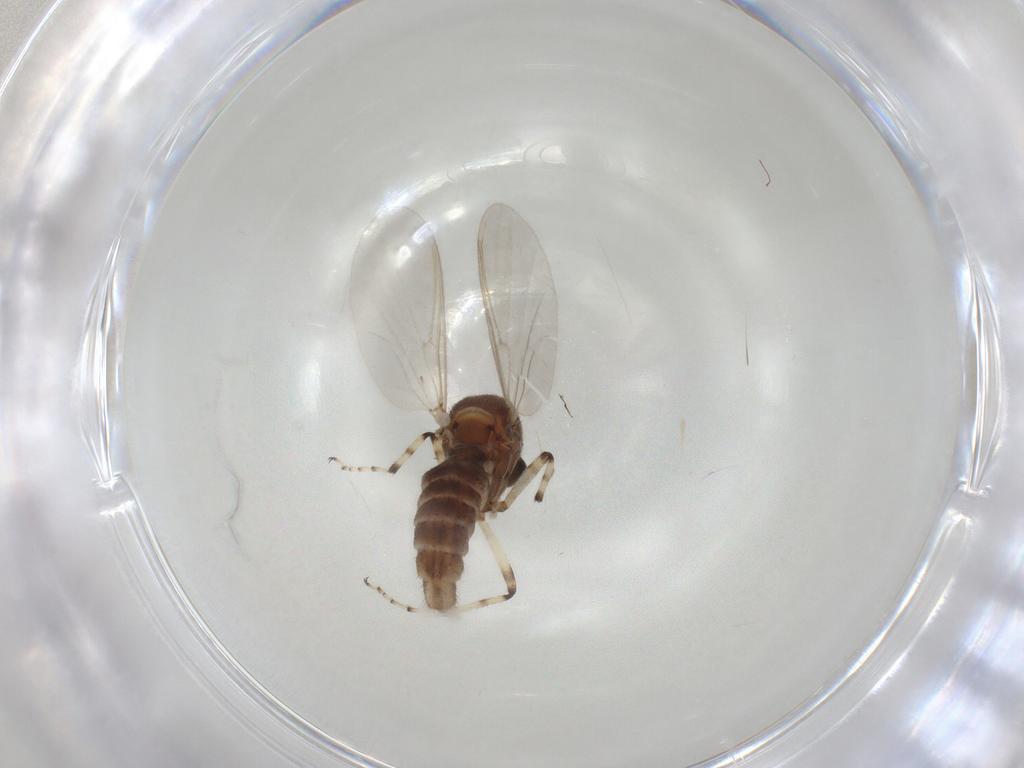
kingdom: Animalia
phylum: Arthropoda
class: Insecta
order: Diptera
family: Ceratopogonidae
